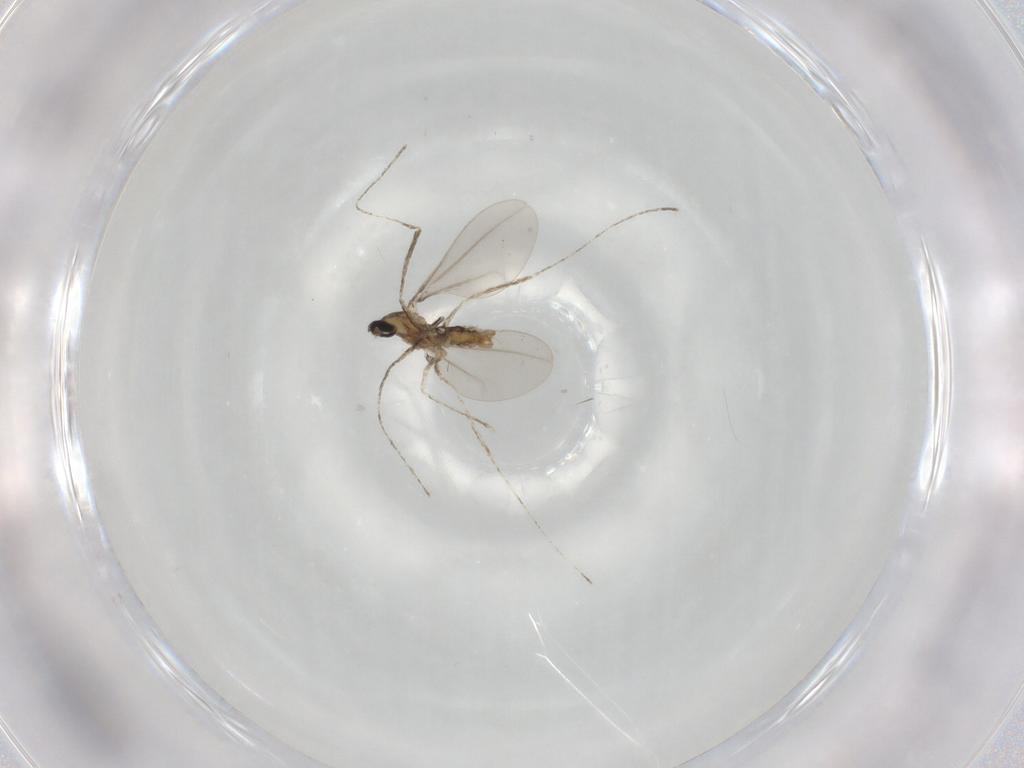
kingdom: Animalia
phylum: Arthropoda
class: Insecta
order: Diptera
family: Cecidomyiidae
